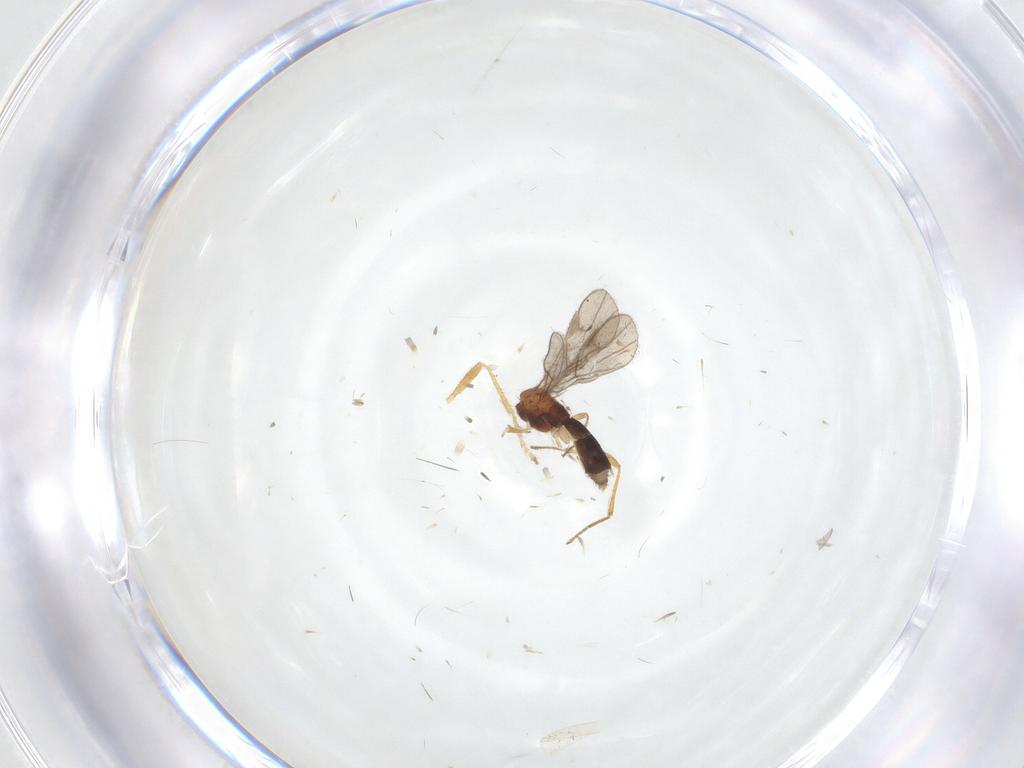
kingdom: Animalia
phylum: Arthropoda
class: Insecta
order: Hymenoptera
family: Braconidae
